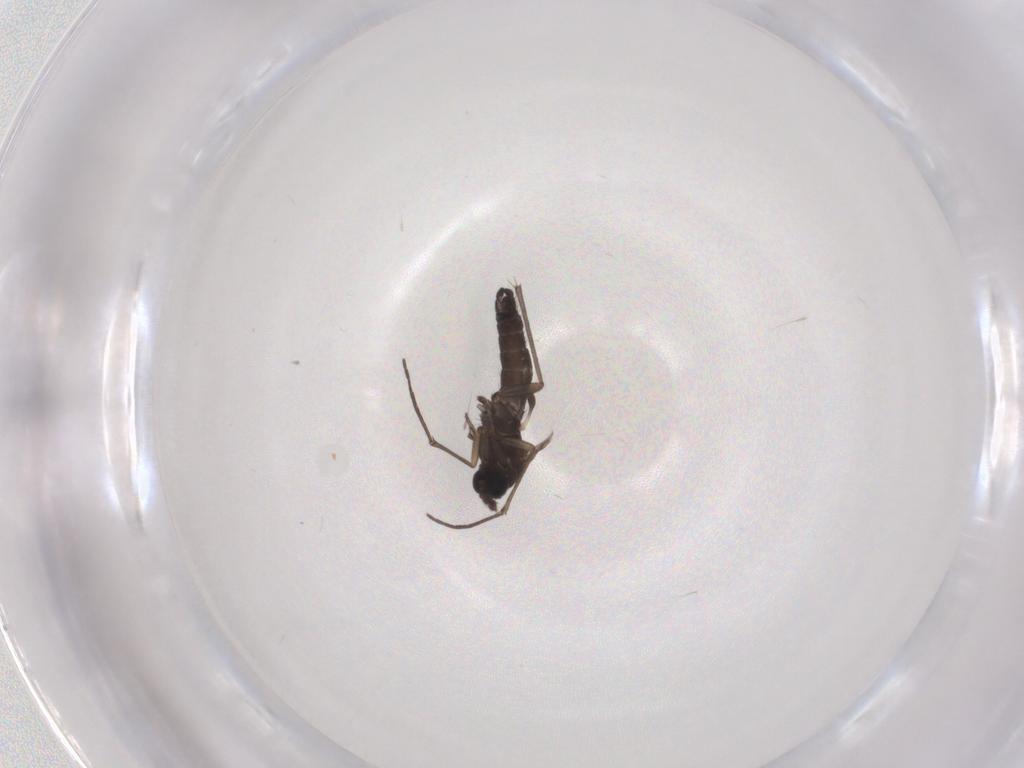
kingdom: Animalia
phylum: Arthropoda
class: Insecta
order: Diptera
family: Sciaridae
